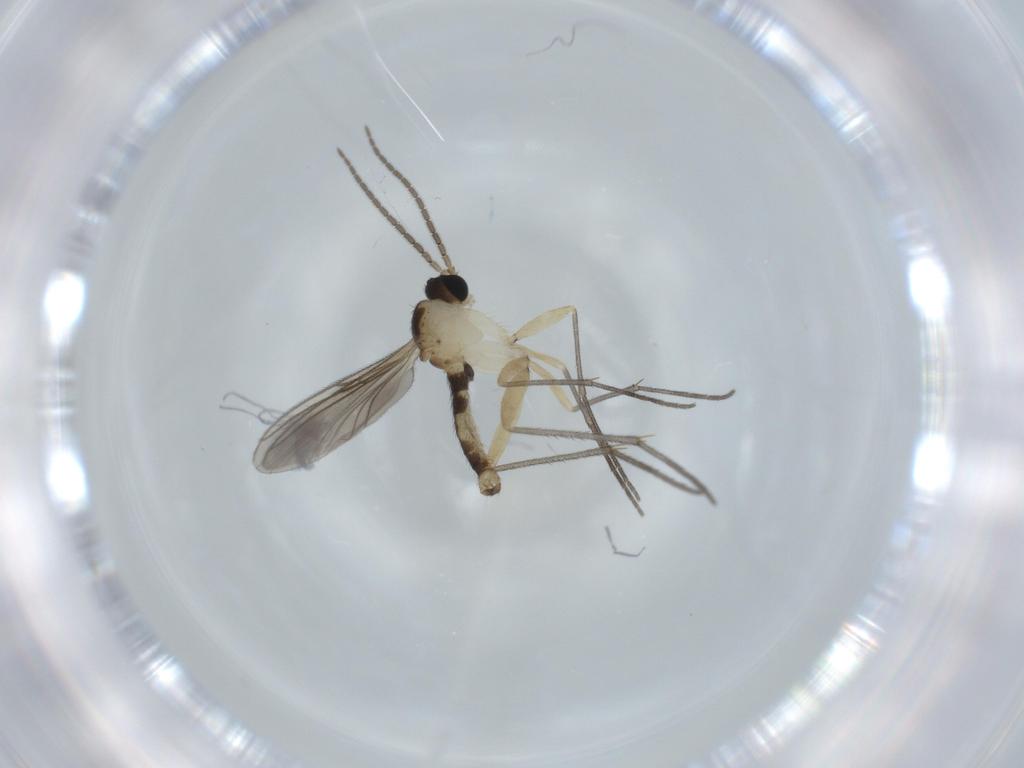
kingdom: Animalia
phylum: Arthropoda
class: Insecta
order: Diptera
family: Sciaridae
